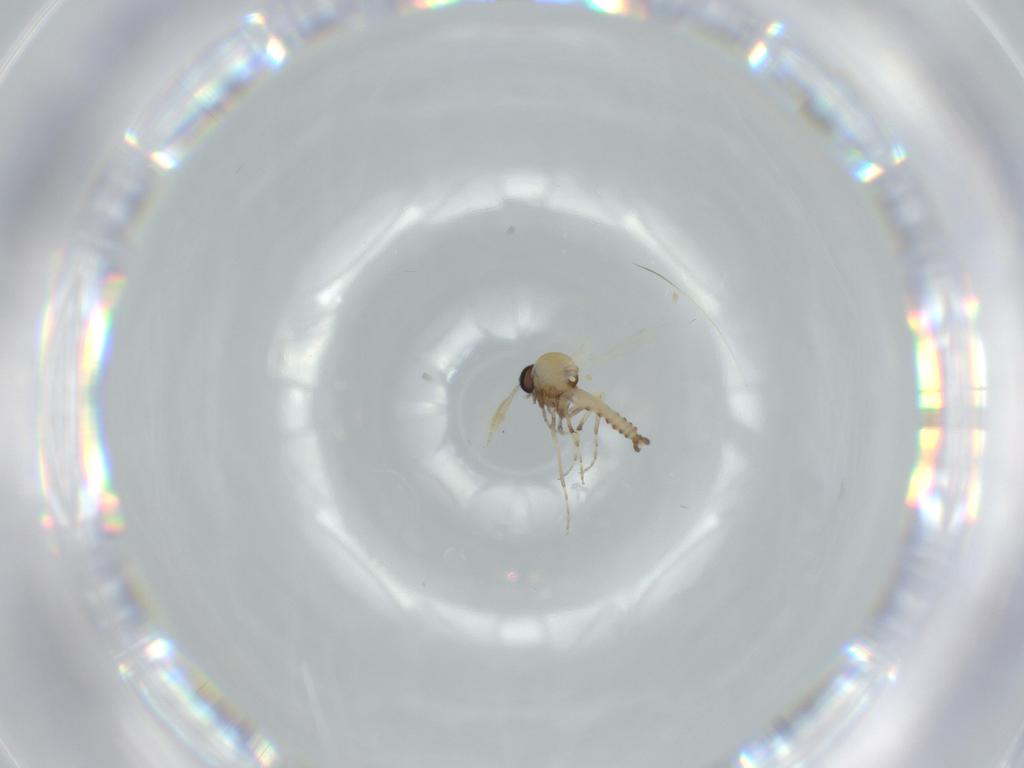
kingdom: Animalia
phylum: Arthropoda
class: Insecta
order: Diptera
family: Ceratopogonidae
